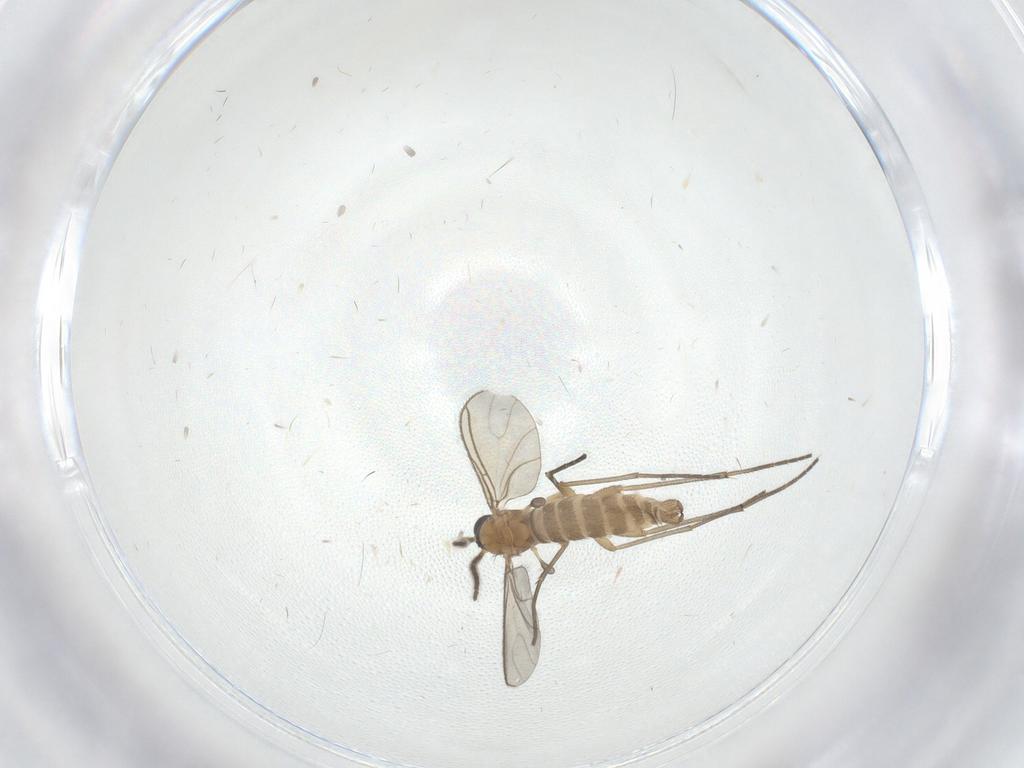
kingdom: Animalia
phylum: Arthropoda
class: Insecta
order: Diptera
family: Sciaridae
